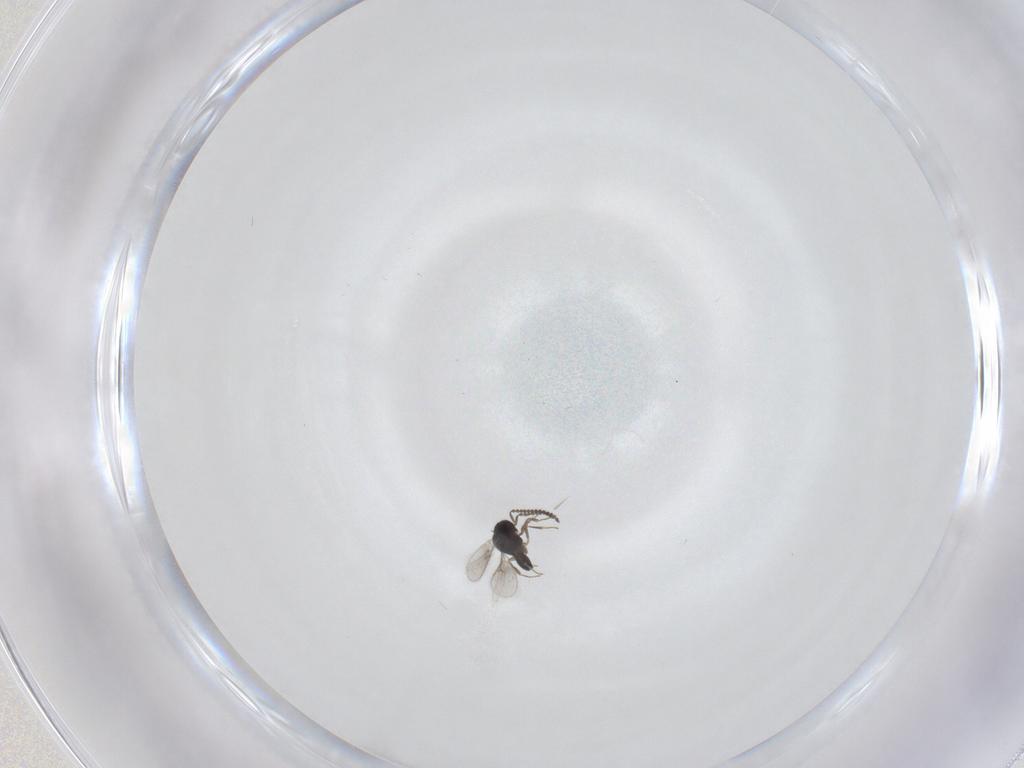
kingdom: Animalia
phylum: Arthropoda
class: Insecta
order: Hymenoptera
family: Scelionidae
